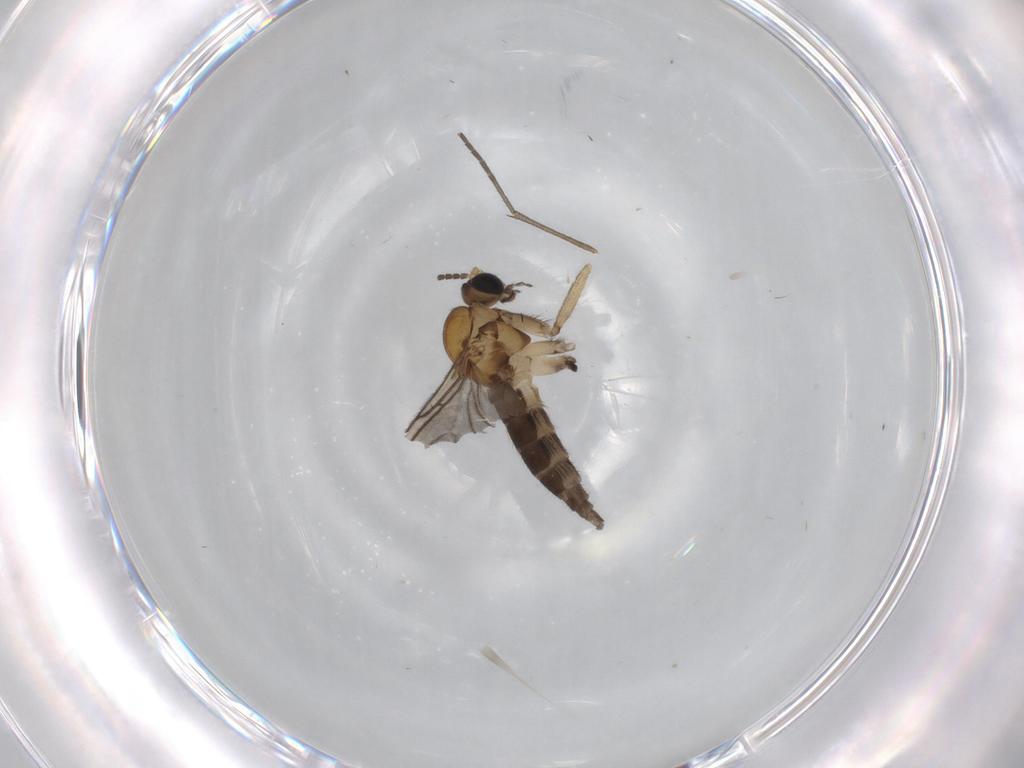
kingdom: Animalia
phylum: Arthropoda
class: Insecta
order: Diptera
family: Sciaridae
